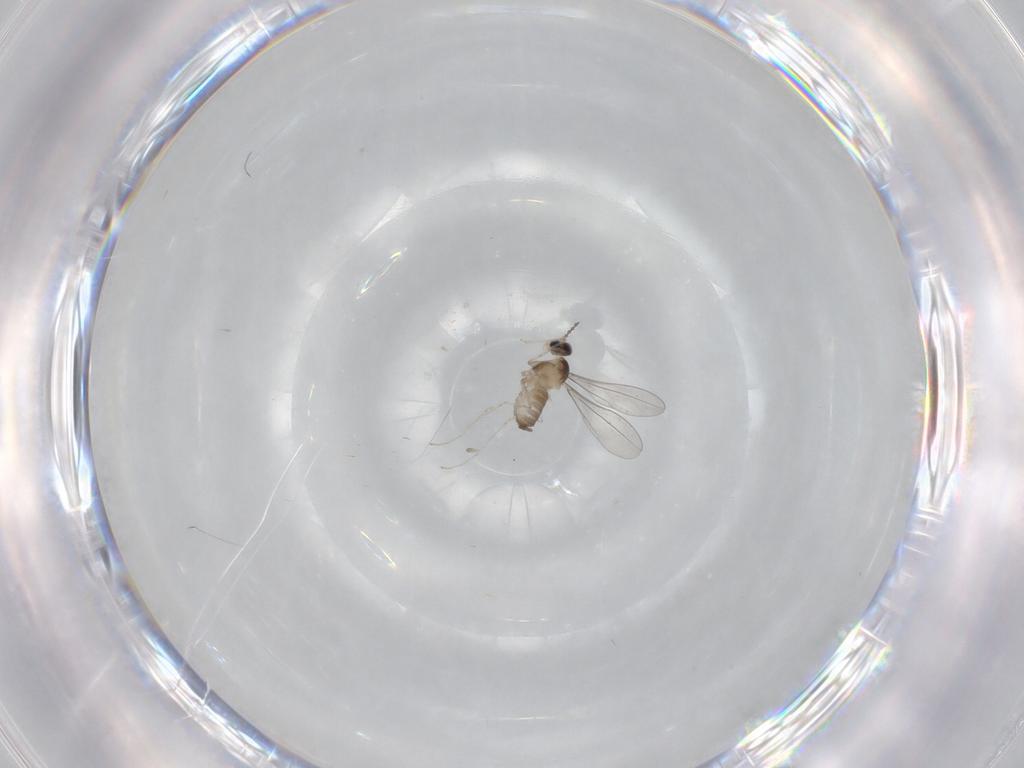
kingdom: Animalia
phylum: Arthropoda
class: Insecta
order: Diptera
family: Cecidomyiidae
